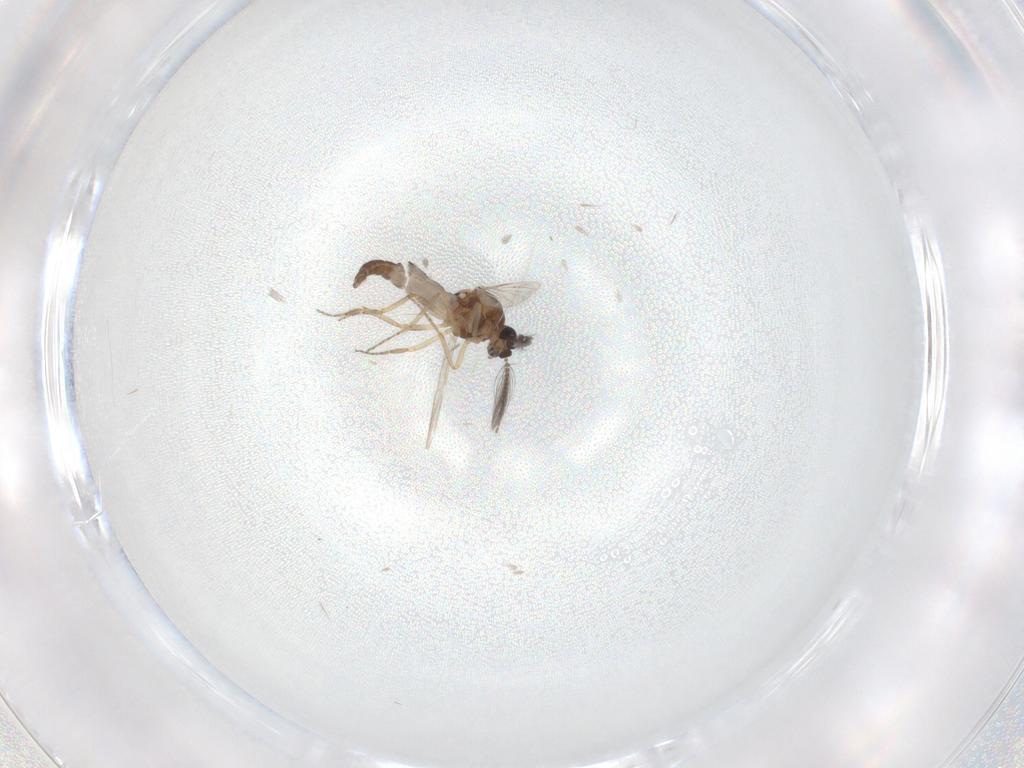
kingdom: Animalia
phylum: Arthropoda
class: Insecta
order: Diptera
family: Ceratopogonidae
